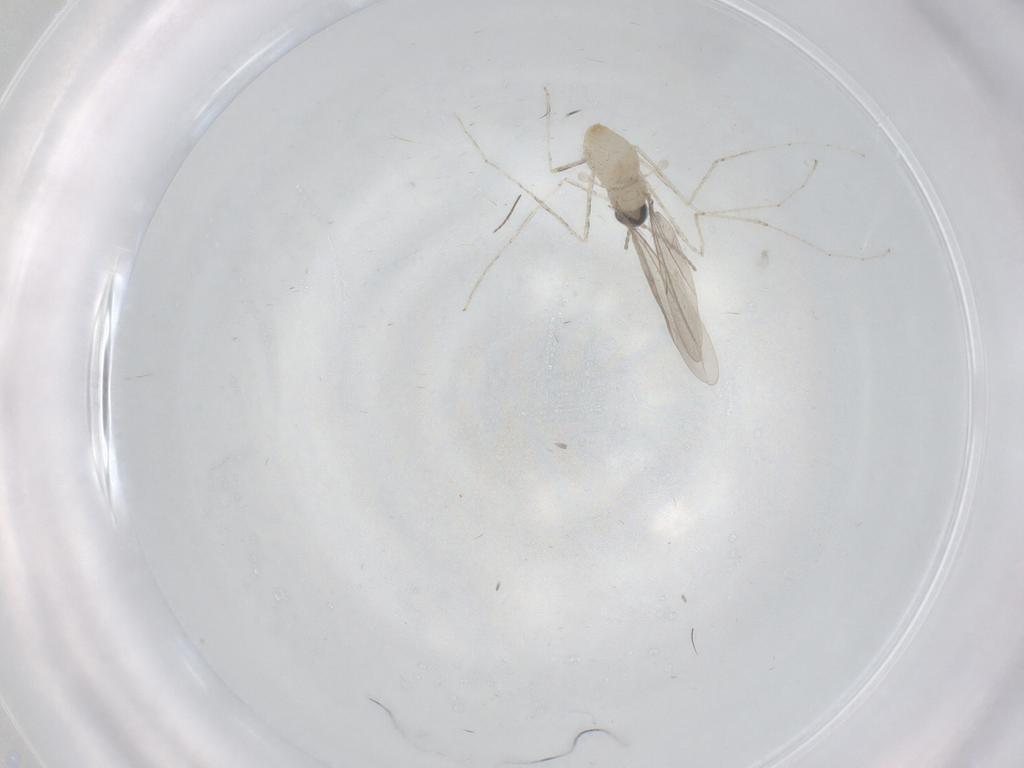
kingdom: Animalia
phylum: Arthropoda
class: Insecta
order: Diptera
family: Cecidomyiidae
